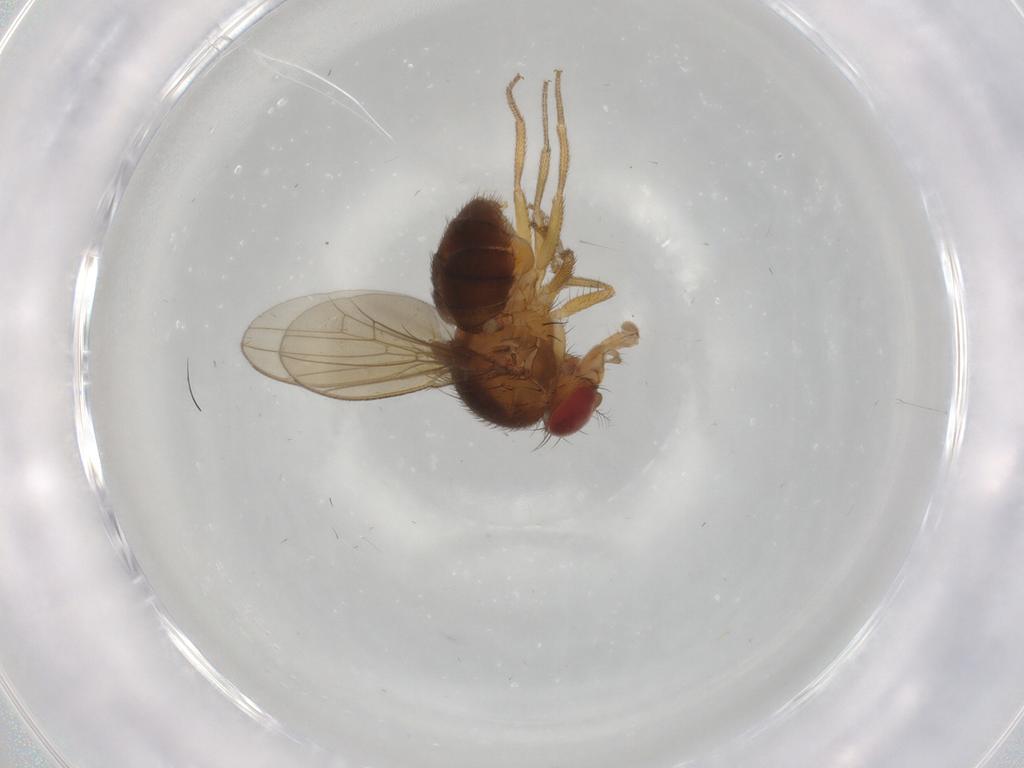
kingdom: Animalia
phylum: Arthropoda
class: Insecta
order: Diptera
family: Drosophilidae
